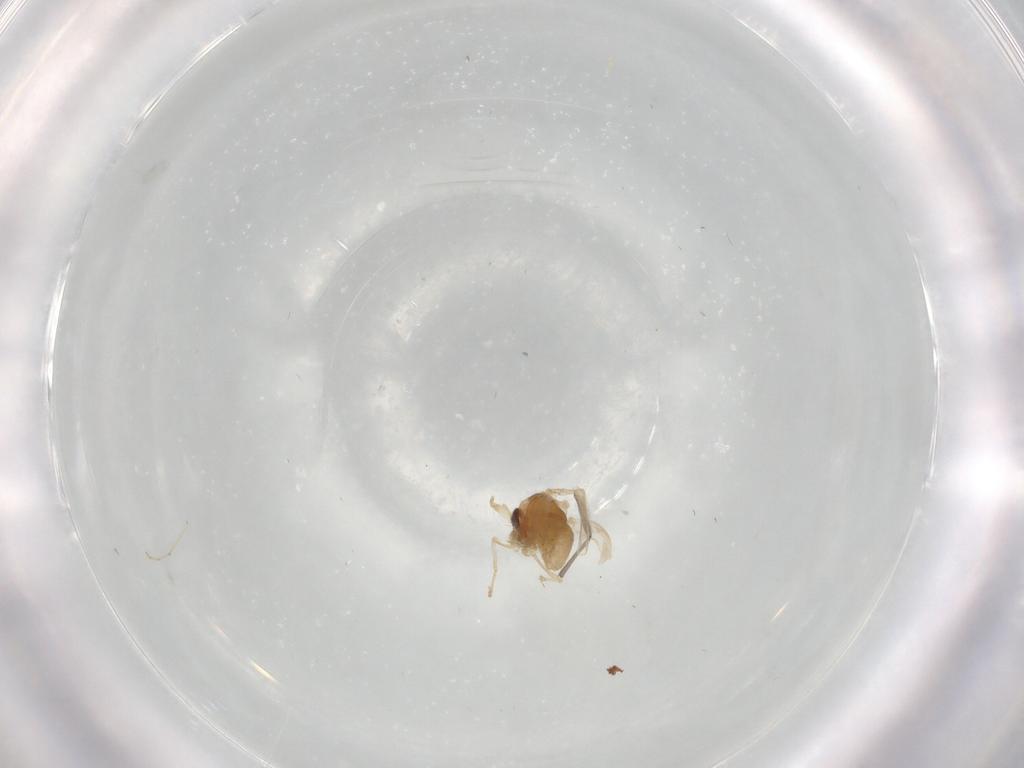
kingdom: Animalia
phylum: Arthropoda
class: Insecta
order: Diptera
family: Sciaridae
